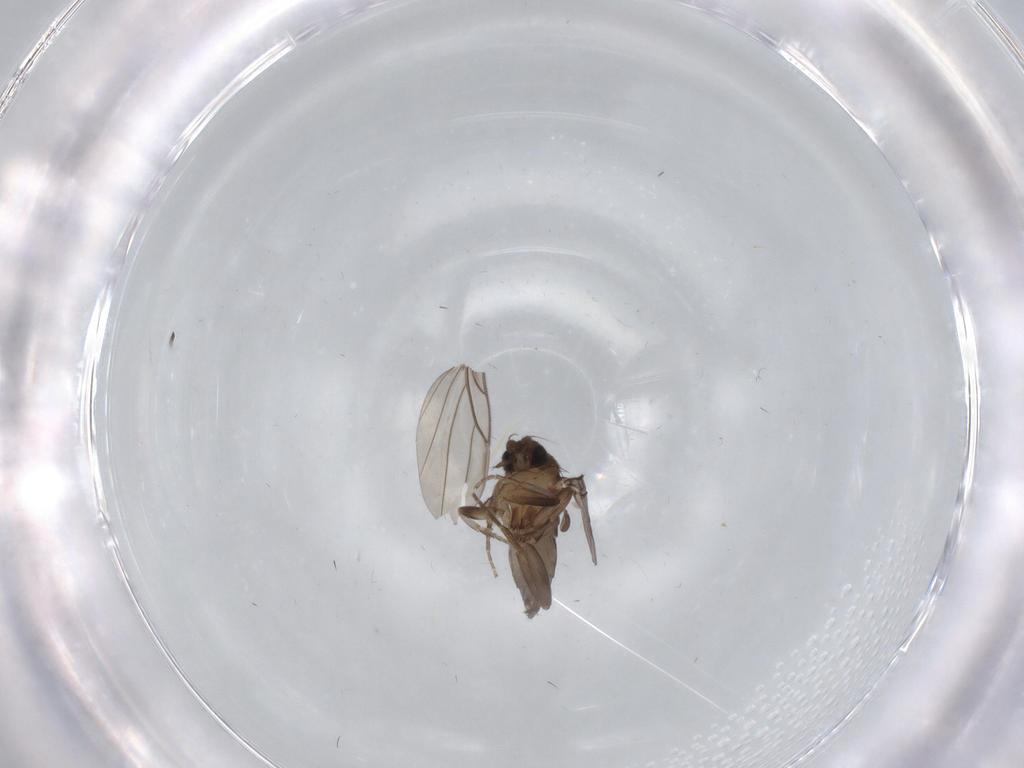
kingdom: Animalia
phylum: Arthropoda
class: Insecta
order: Diptera
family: Phoridae
